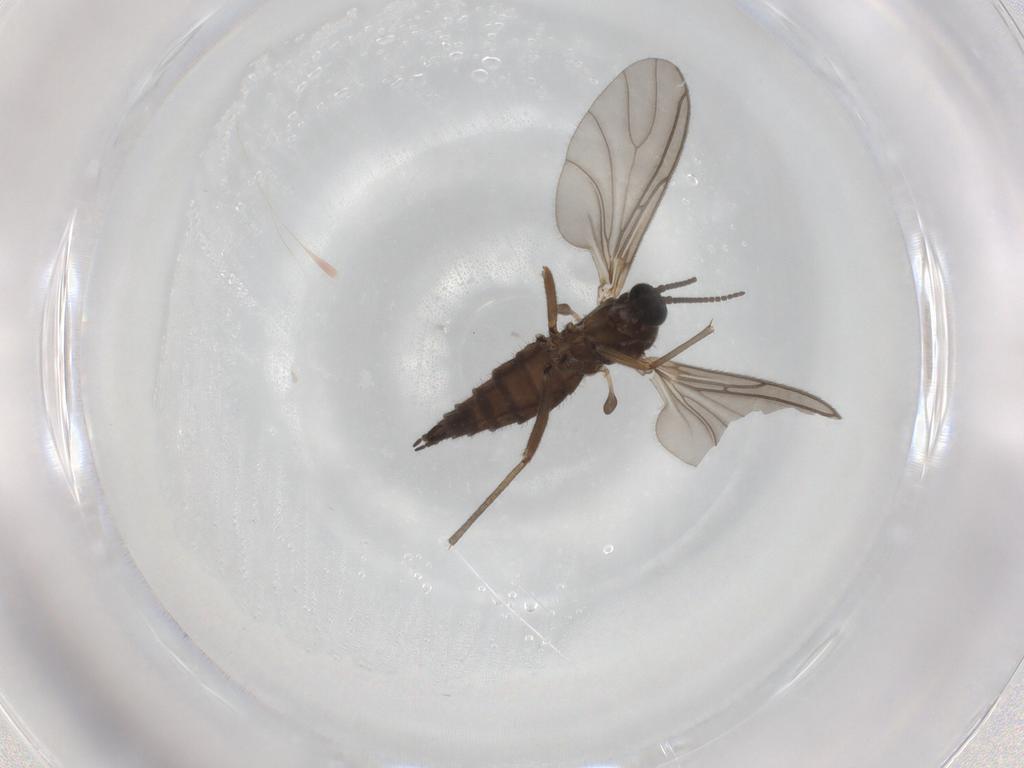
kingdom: Animalia
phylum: Arthropoda
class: Insecta
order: Diptera
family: Sciaridae
